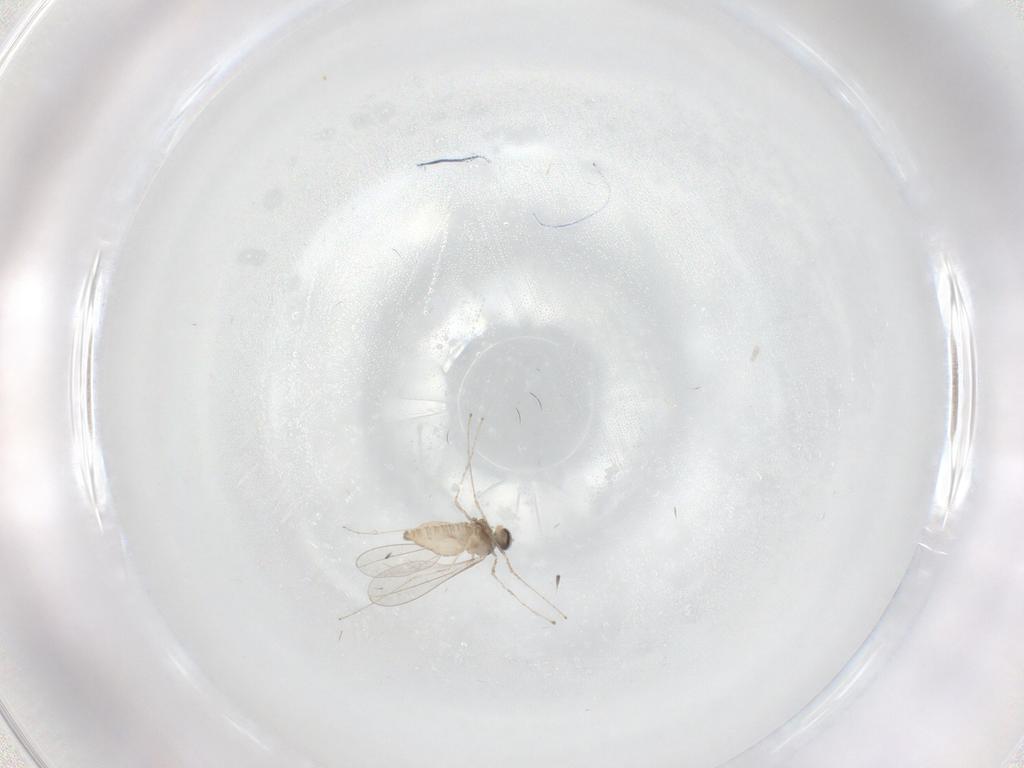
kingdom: Animalia
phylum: Arthropoda
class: Insecta
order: Diptera
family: Cecidomyiidae
